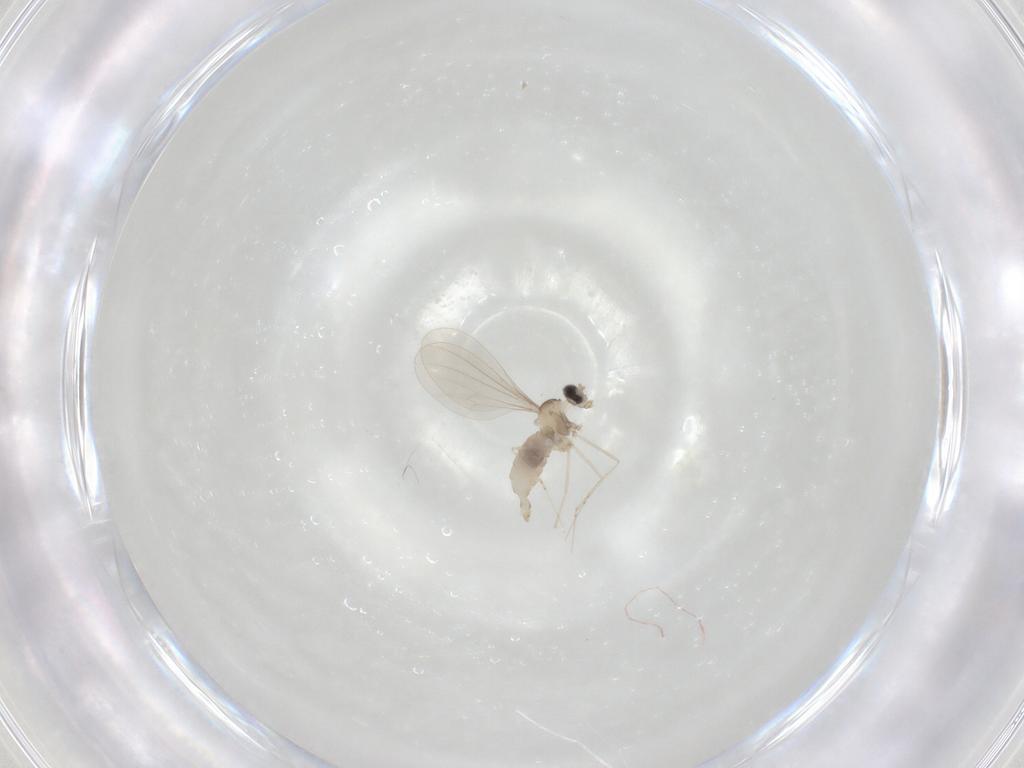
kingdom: Animalia
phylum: Arthropoda
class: Insecta
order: Diptera
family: Cecidomyiidae
